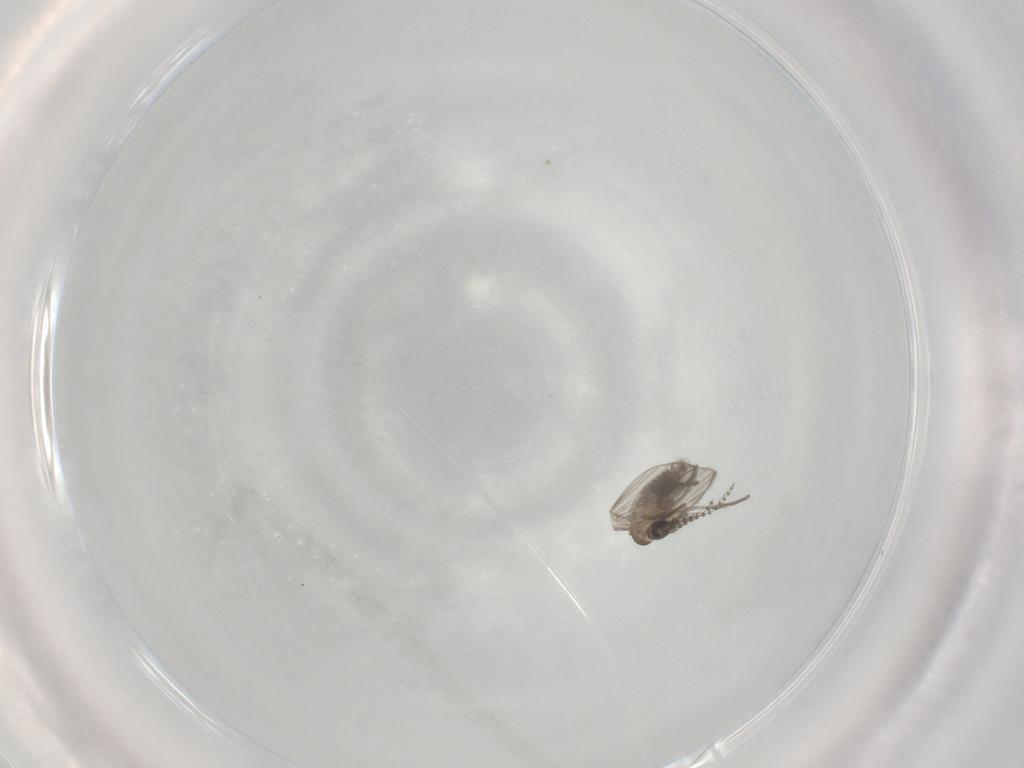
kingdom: Animalia
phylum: Arthropoda
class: Insecta
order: Diptera
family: Psychodidae
